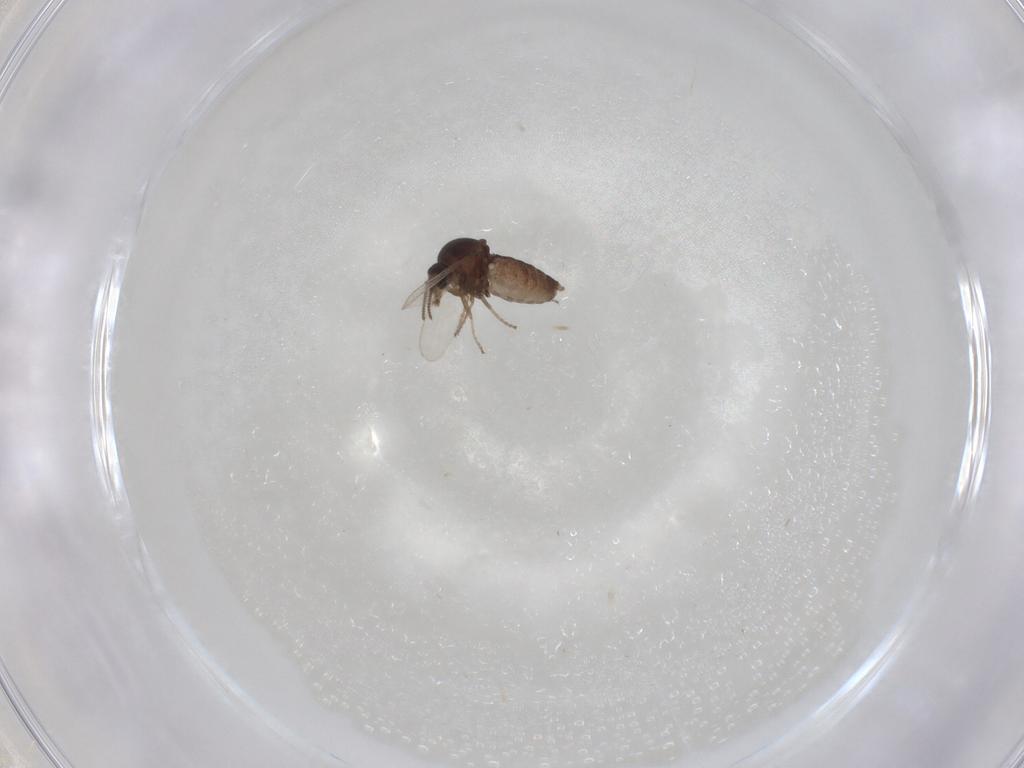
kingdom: Animalia
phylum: Arthropoda
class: Insecta
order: Diptera
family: Ceratopogonidae
